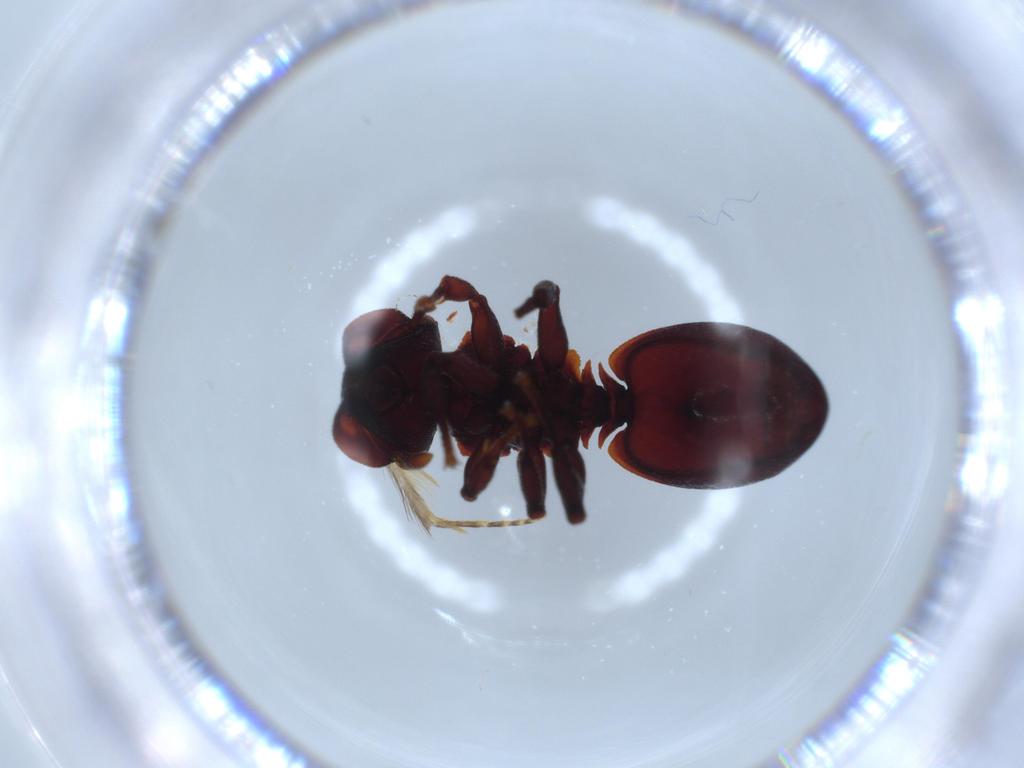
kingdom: Animalia
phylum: Arthropoda
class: Insecta
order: Hymenoptera
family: Formicidae
